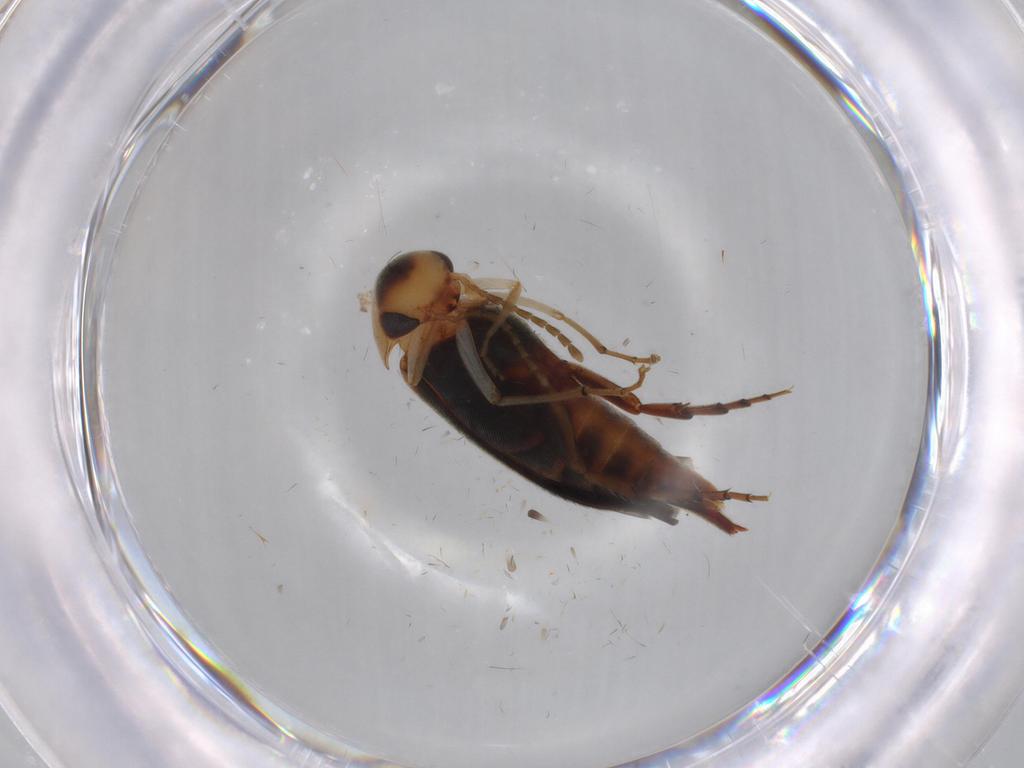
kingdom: Animalia
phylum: Arthropoda
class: Insecta
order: Coleoptera
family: Mordellidae
